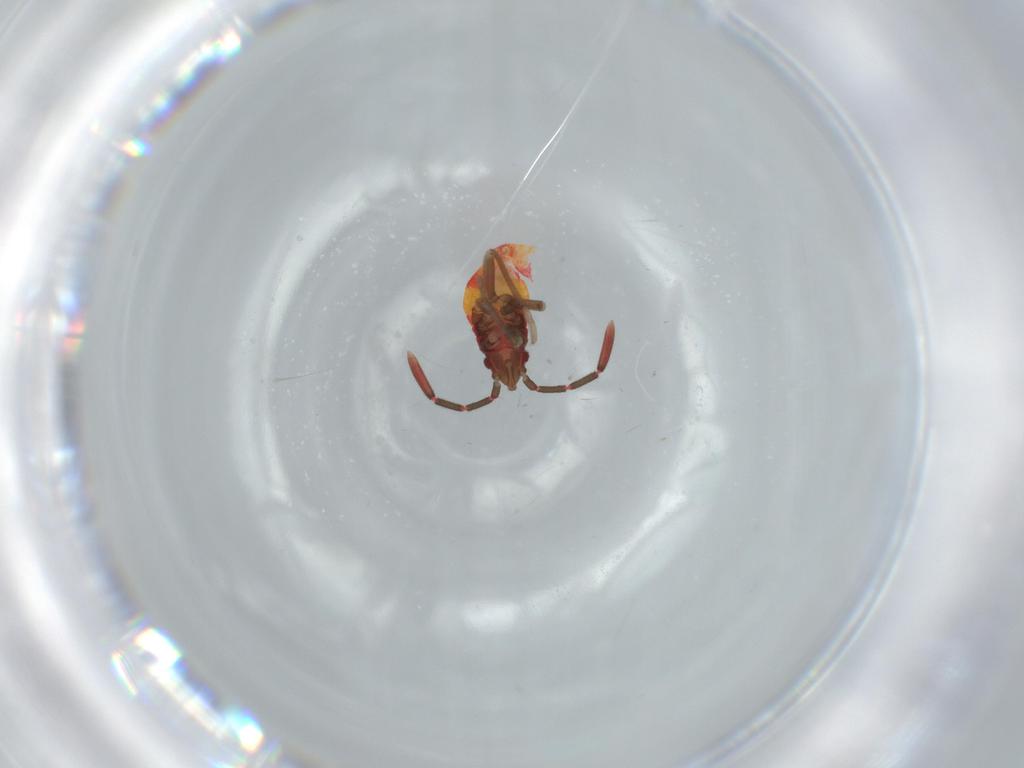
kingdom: Animalia
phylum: Arthropoda
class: Insecta
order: Hemiptera
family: Rhyparochromidae
